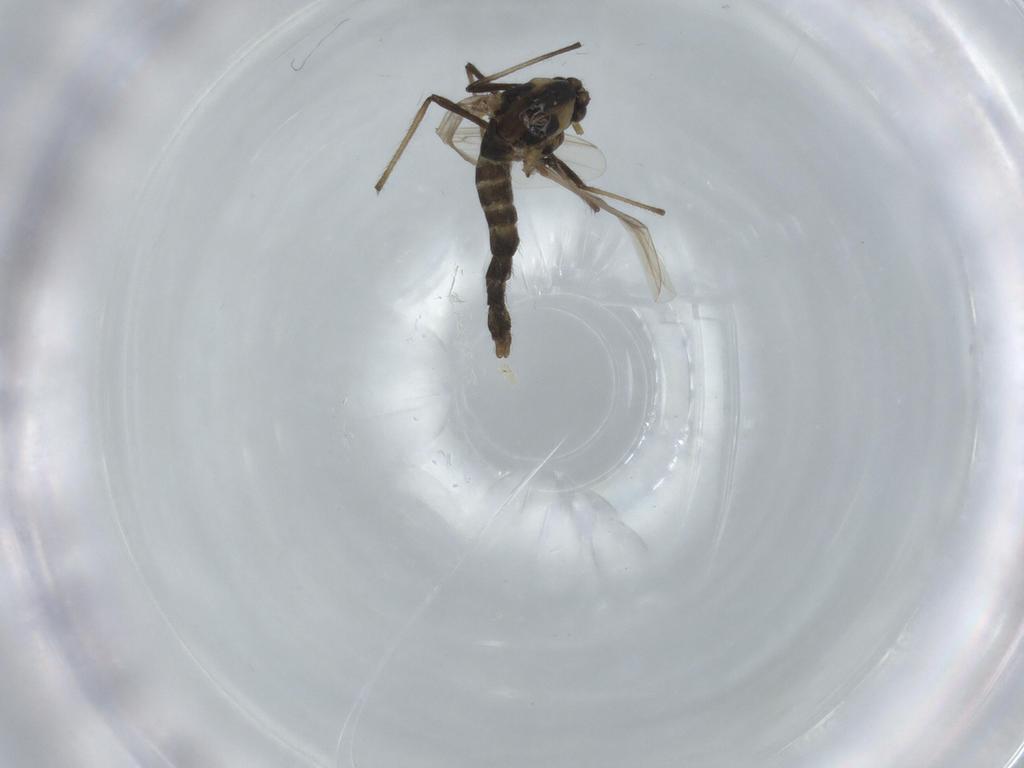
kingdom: Animalia
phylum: Arthropoda
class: Insecta
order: Diptera
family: Chironomidae
